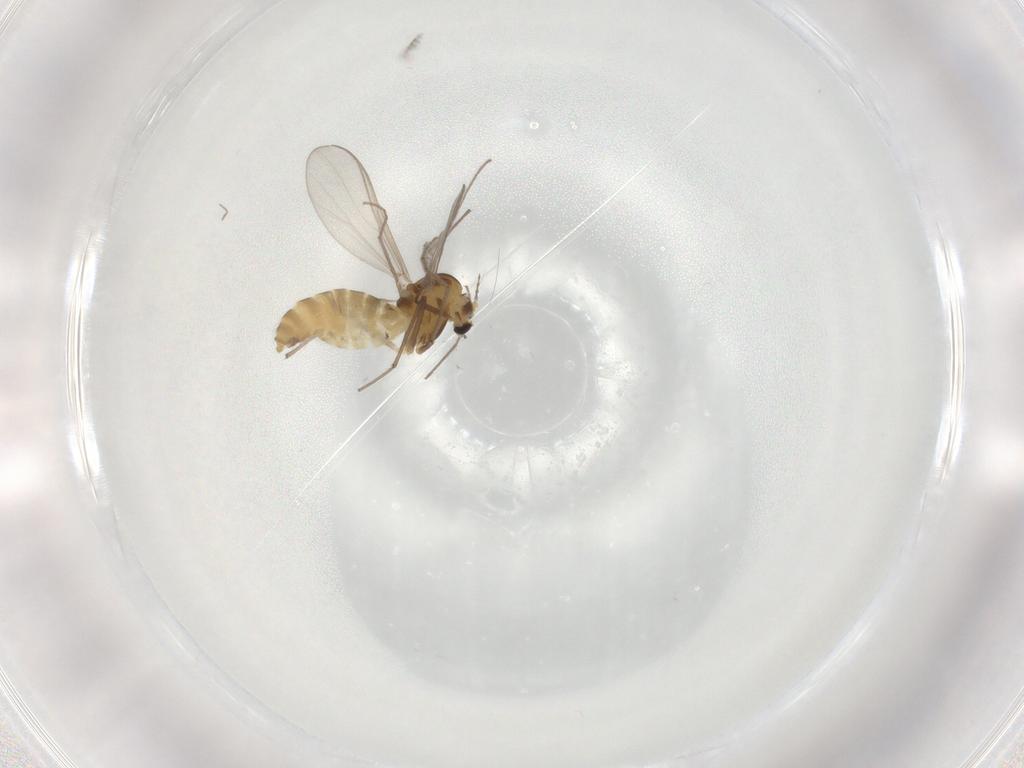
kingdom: Animalia
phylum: Arthropoda
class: Insecta
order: Diptera
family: Chironomidae
